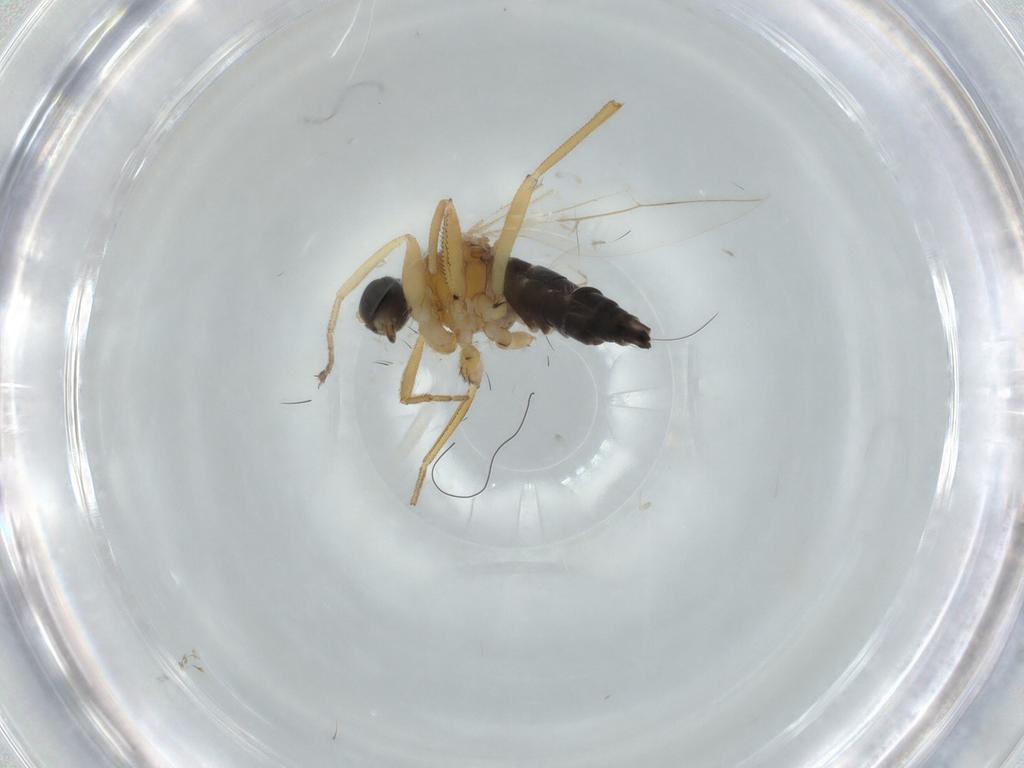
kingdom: Animalia
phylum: Arthropoda
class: Insecta
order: Diptera
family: Hybotidae
